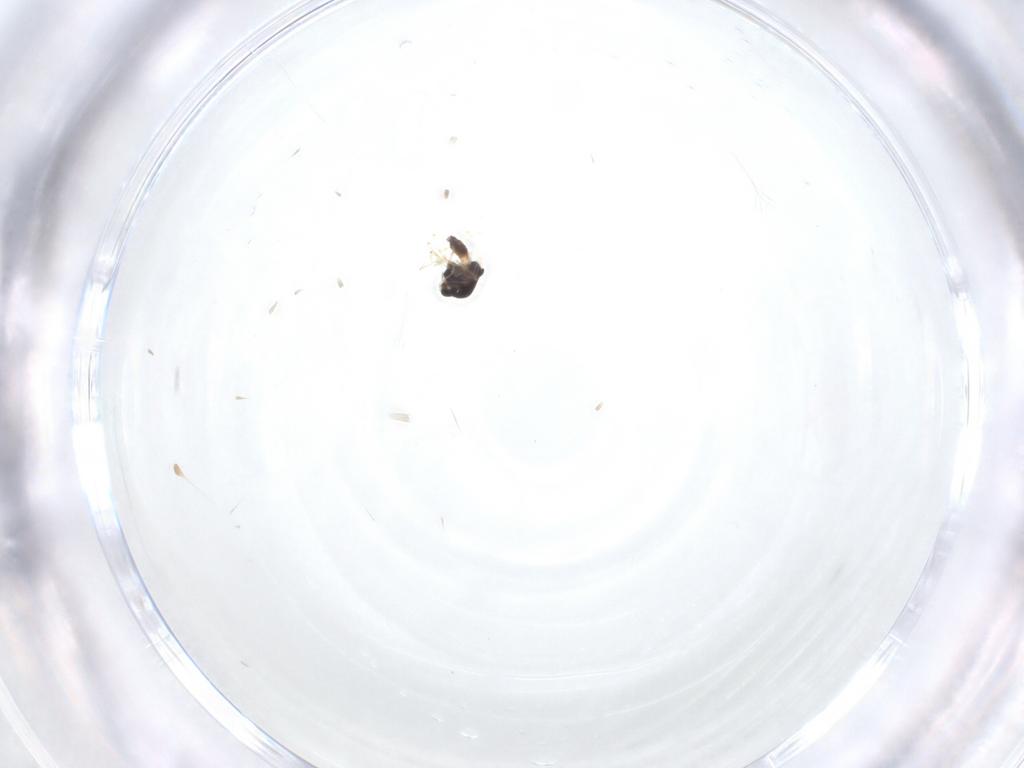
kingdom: Animalia
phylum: Arthropoda
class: Insecta
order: Diptera
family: Chironomidae
